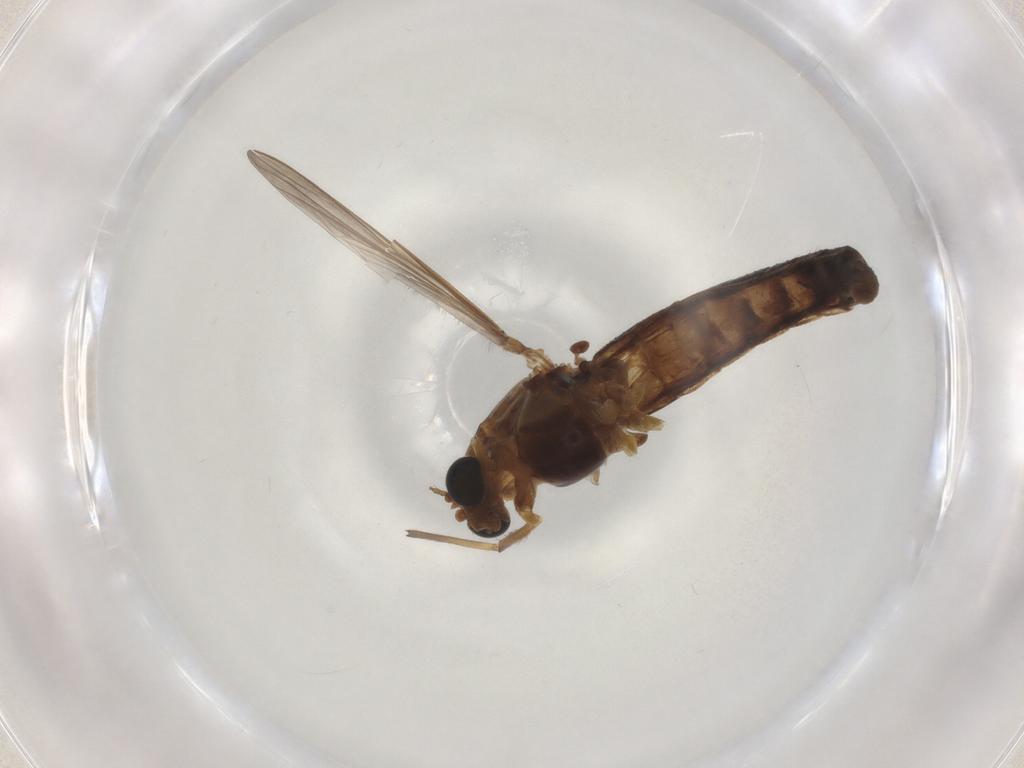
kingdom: Animalia
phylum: Arthropoda
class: Insecta
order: Diptera
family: Chironomidae
